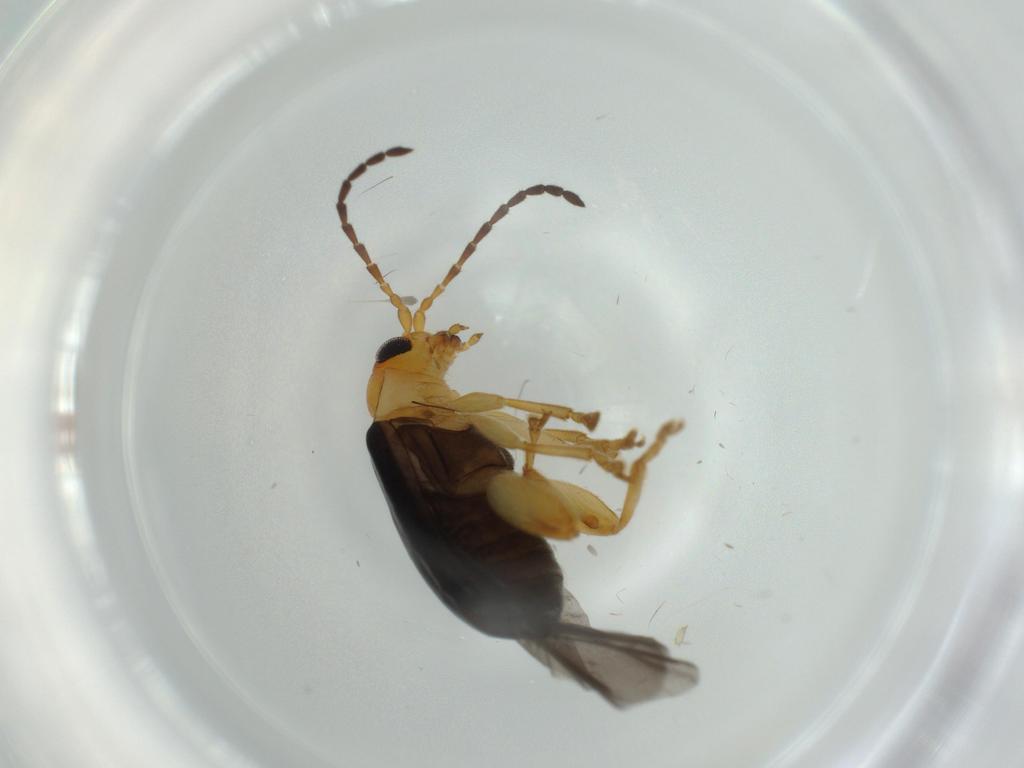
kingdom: Animalia
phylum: Arthropoda
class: Insecta
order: Coleoptera
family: Chrysomelidae
